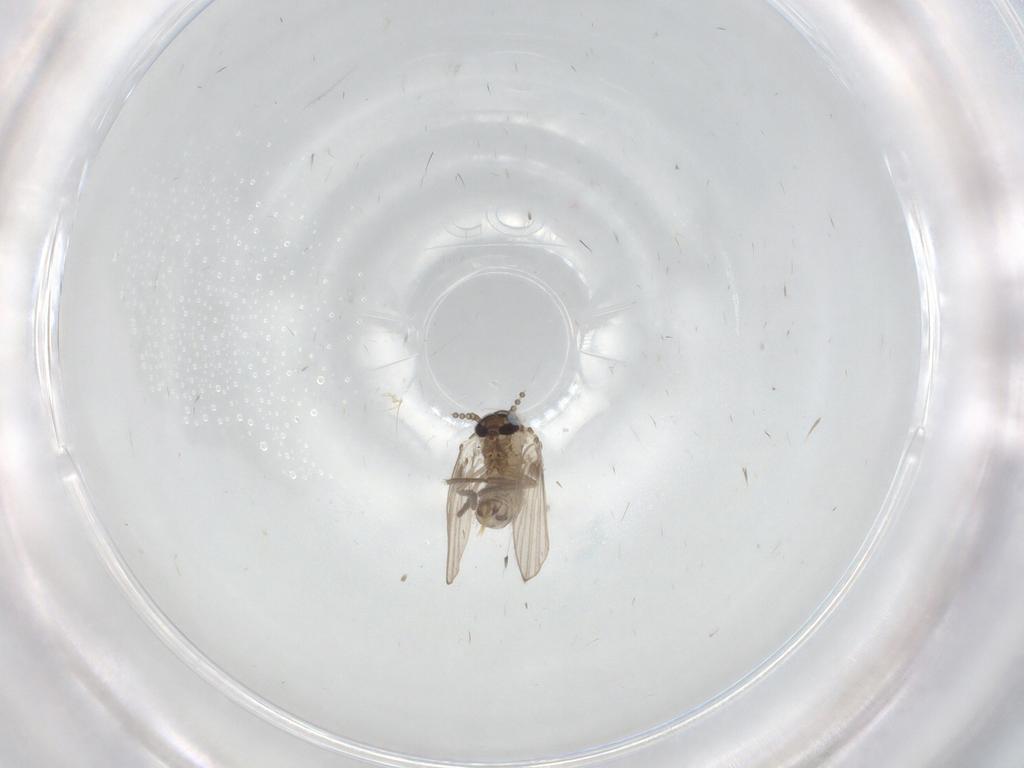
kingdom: Animalia
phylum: Arthropoda
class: Insecta
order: Diptera
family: Psychodidae
